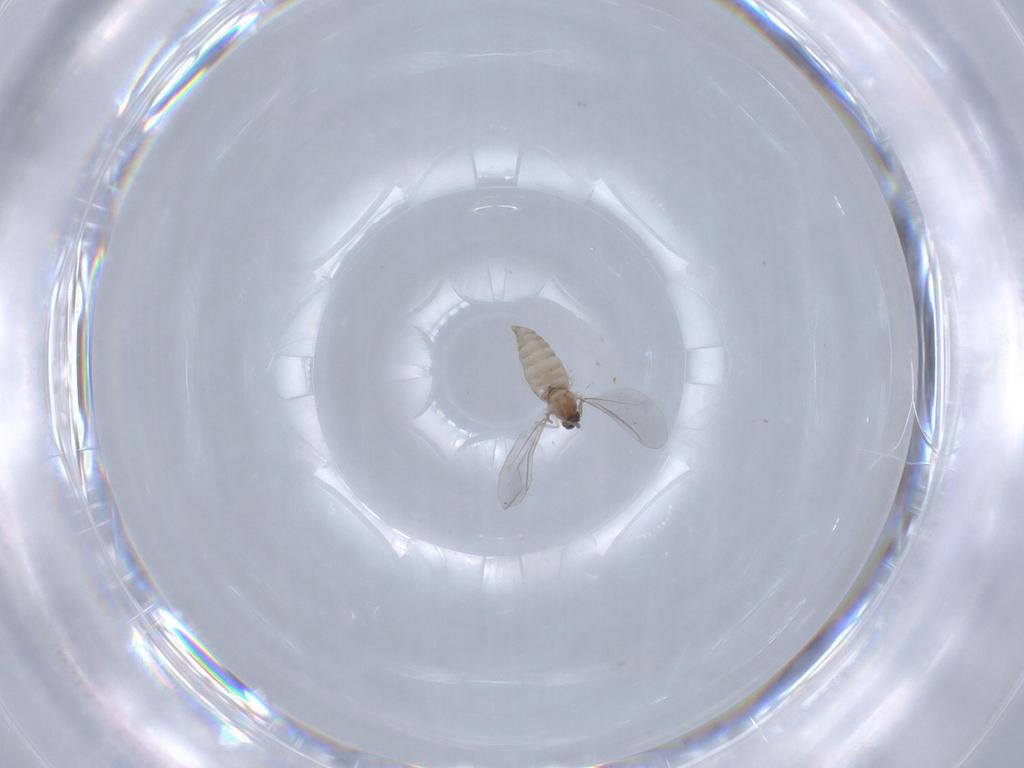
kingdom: Animalia
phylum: Arthropoda
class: Insecta
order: Diptera
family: Cecidomyiidae
